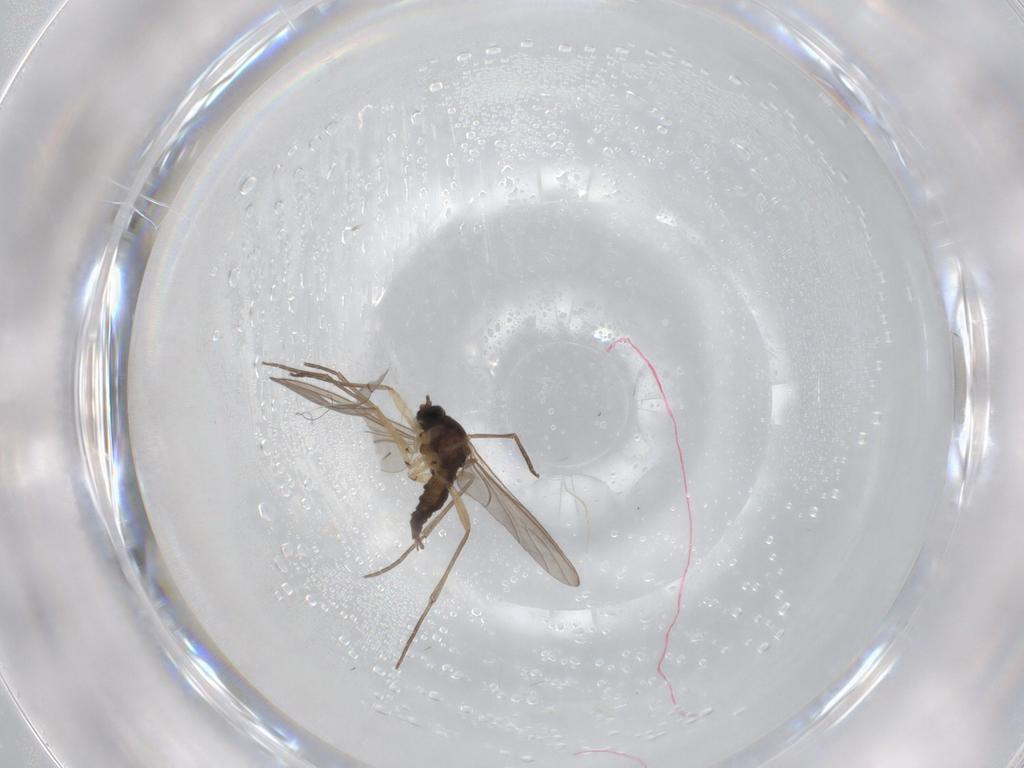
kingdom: Animalia
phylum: Arthropoda
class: Insecta
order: Diptera
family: Sciaridae
